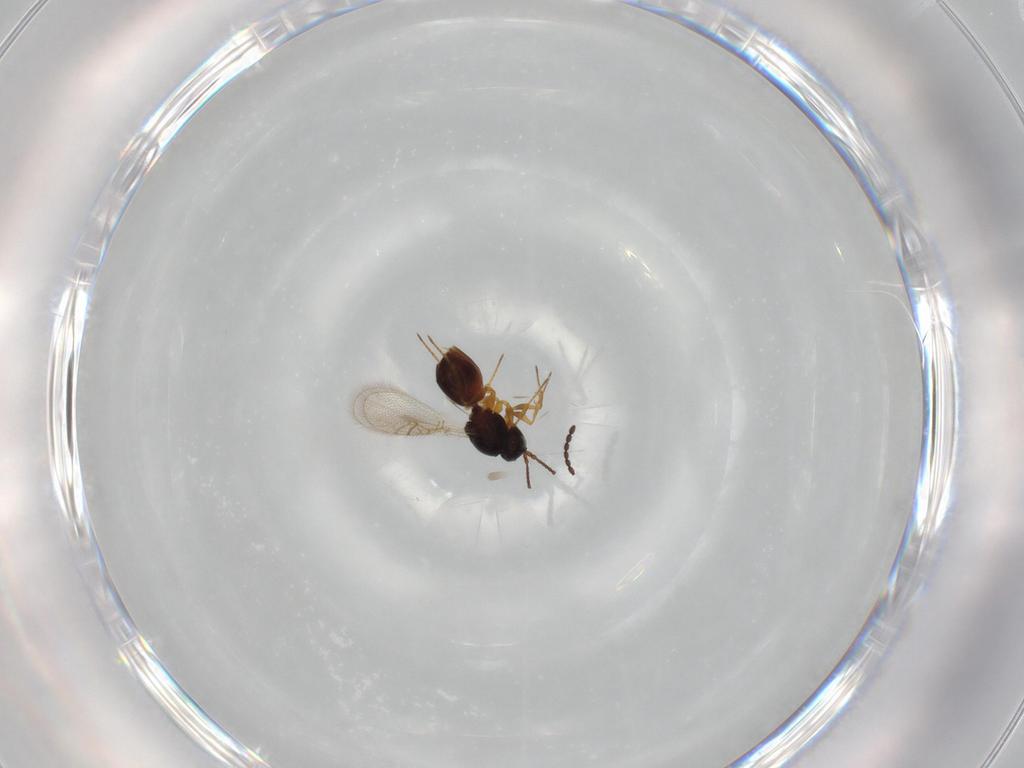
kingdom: Animalia
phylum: Arthropoda
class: Insecta
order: Hymenoptera
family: Figitidae
